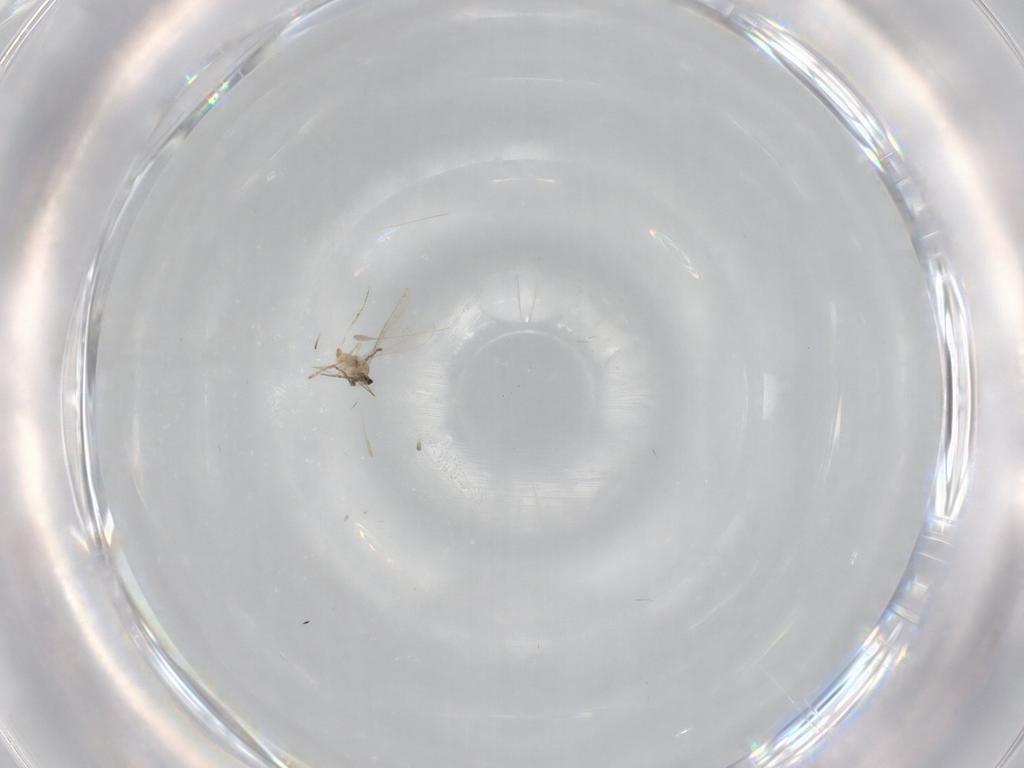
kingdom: Animalia
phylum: Arthropoda
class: Insecta
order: Diptera
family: Cecidomyiidae
